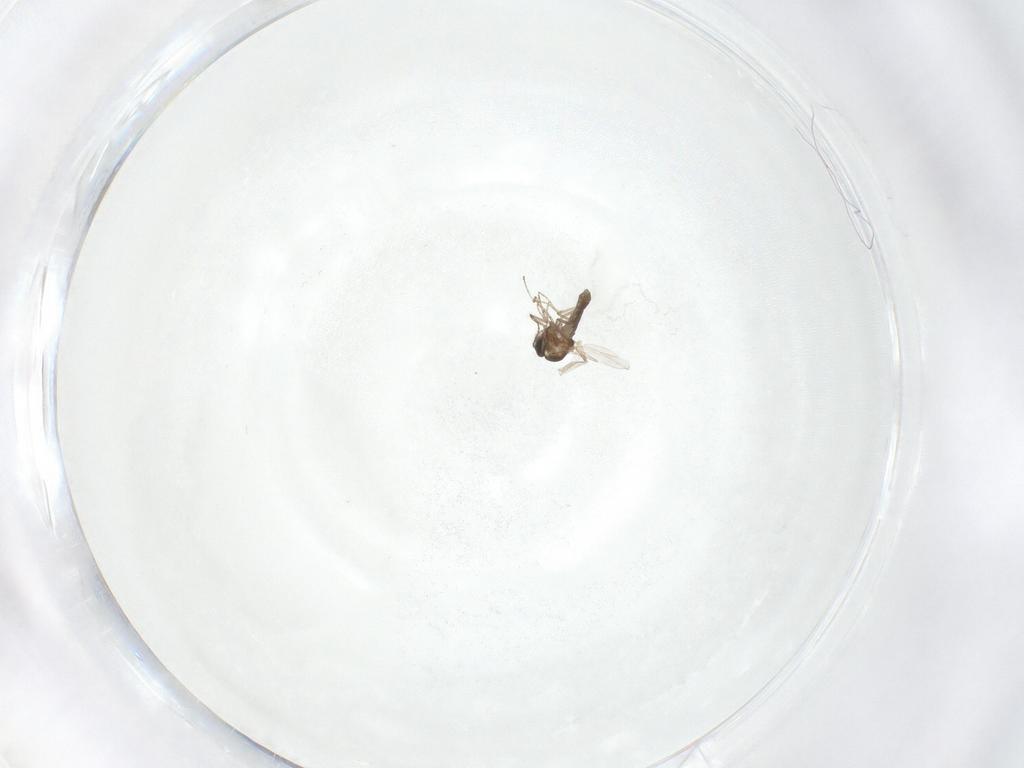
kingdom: Animalia
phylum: Arthropoda
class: Insecta
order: Diptera
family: Ceratopogonidae
